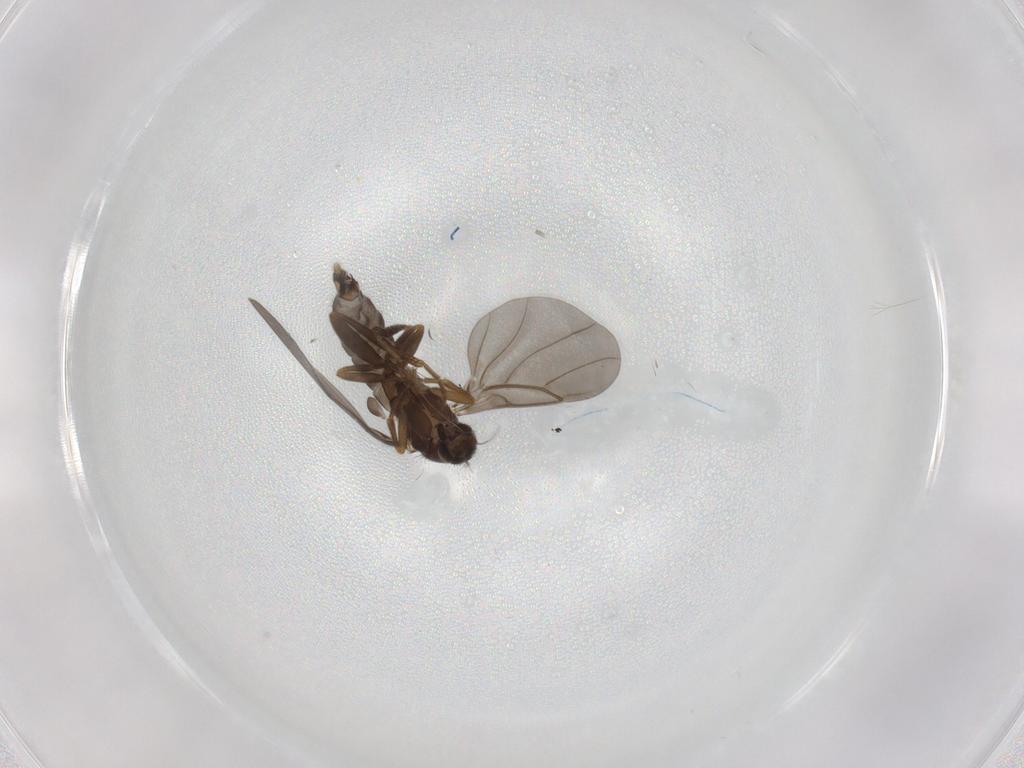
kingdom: Animalia
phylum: Arthropoda
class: Insecta
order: Diptera
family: Phoridae
